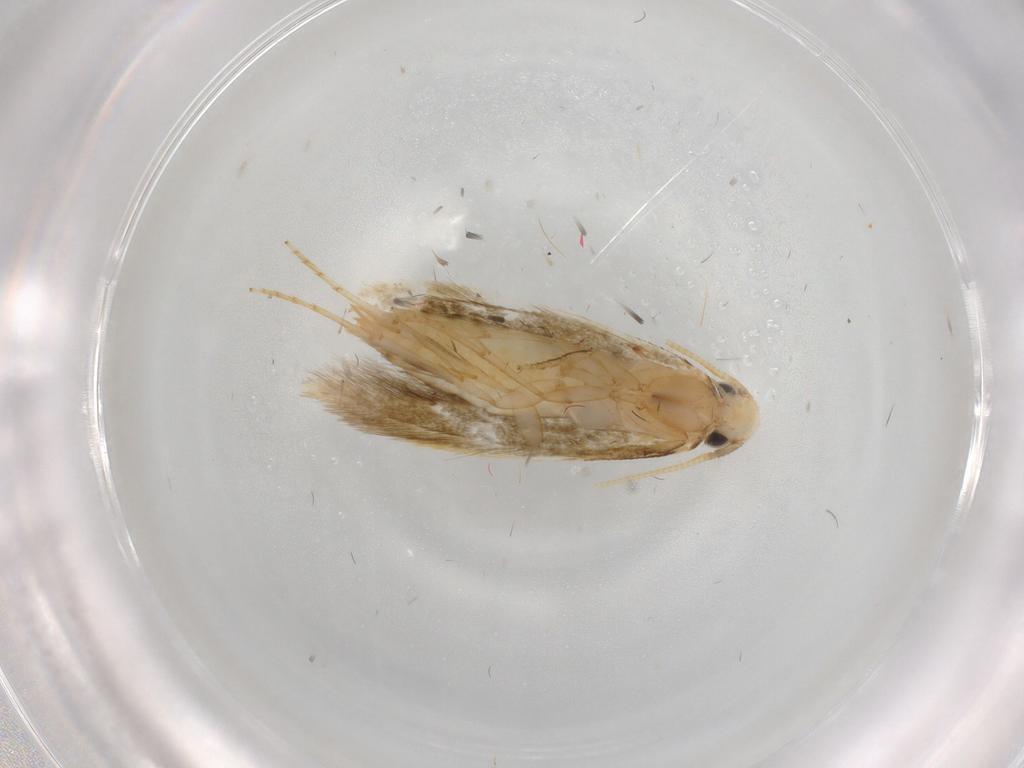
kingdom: Animalia
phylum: Arthropoda
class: Insecta
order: Lepidoptera
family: Tineidae
